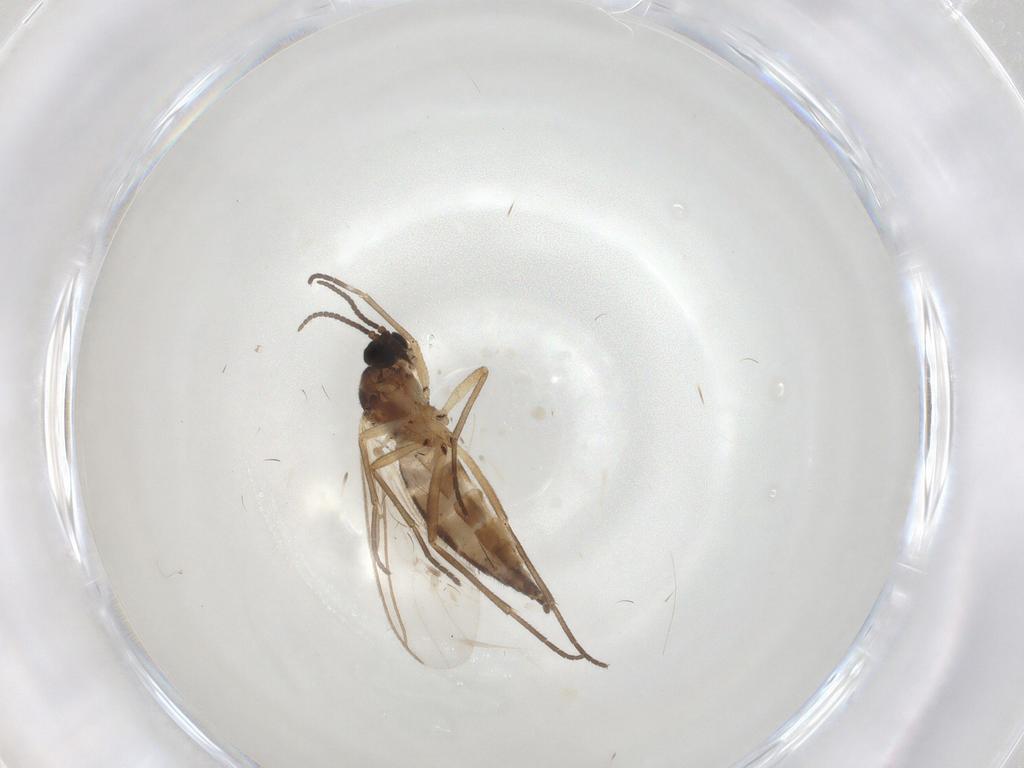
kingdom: Animalia
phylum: Arthropoda
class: Insecta
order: Diptera
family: Sciaridae
